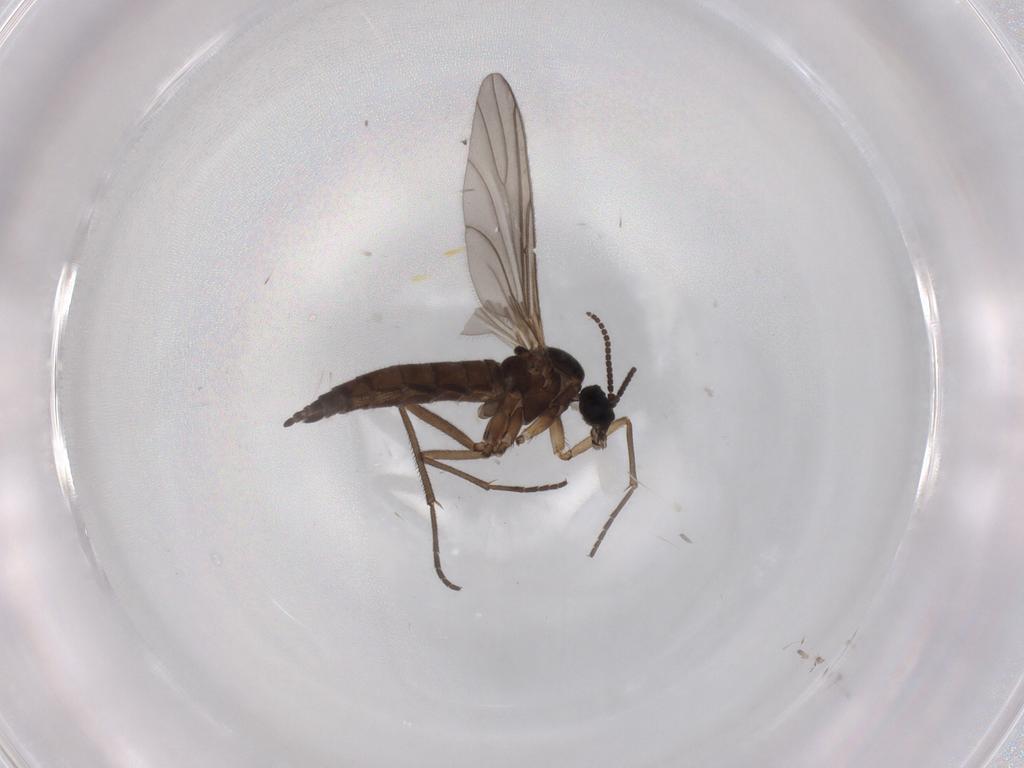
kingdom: Animalia
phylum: Arthropoda
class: Insecta
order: Diptera
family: Sciaridae
